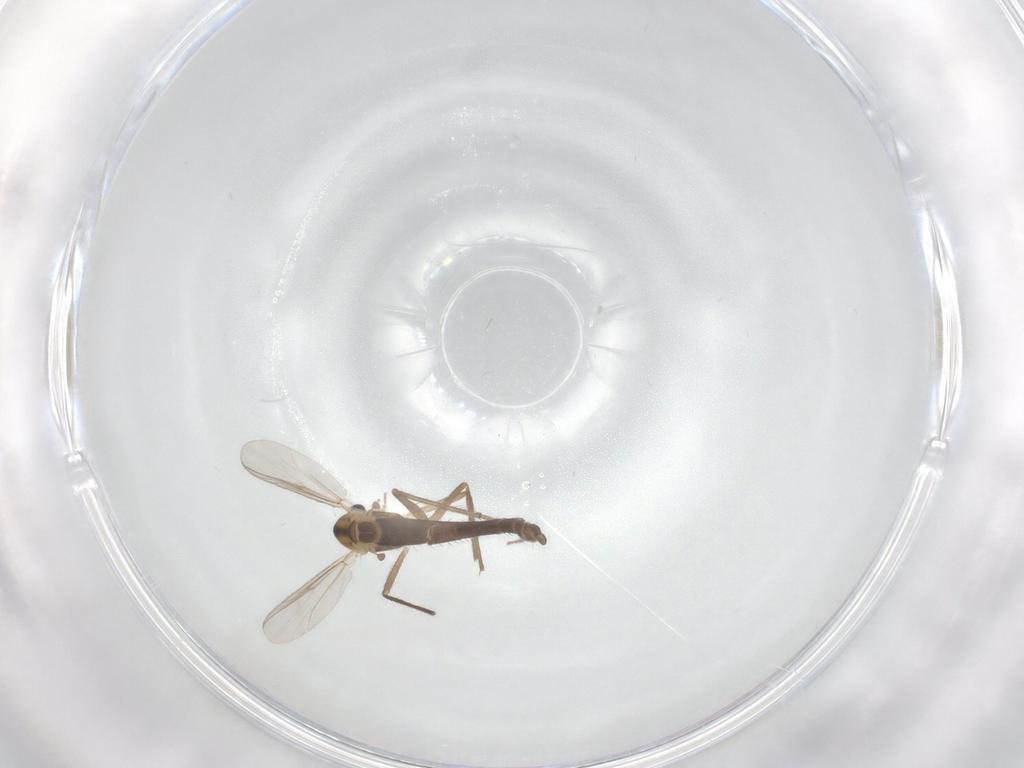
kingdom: Animalia
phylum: Arthropoda
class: Insecta
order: Diptera
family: Chironomidae
